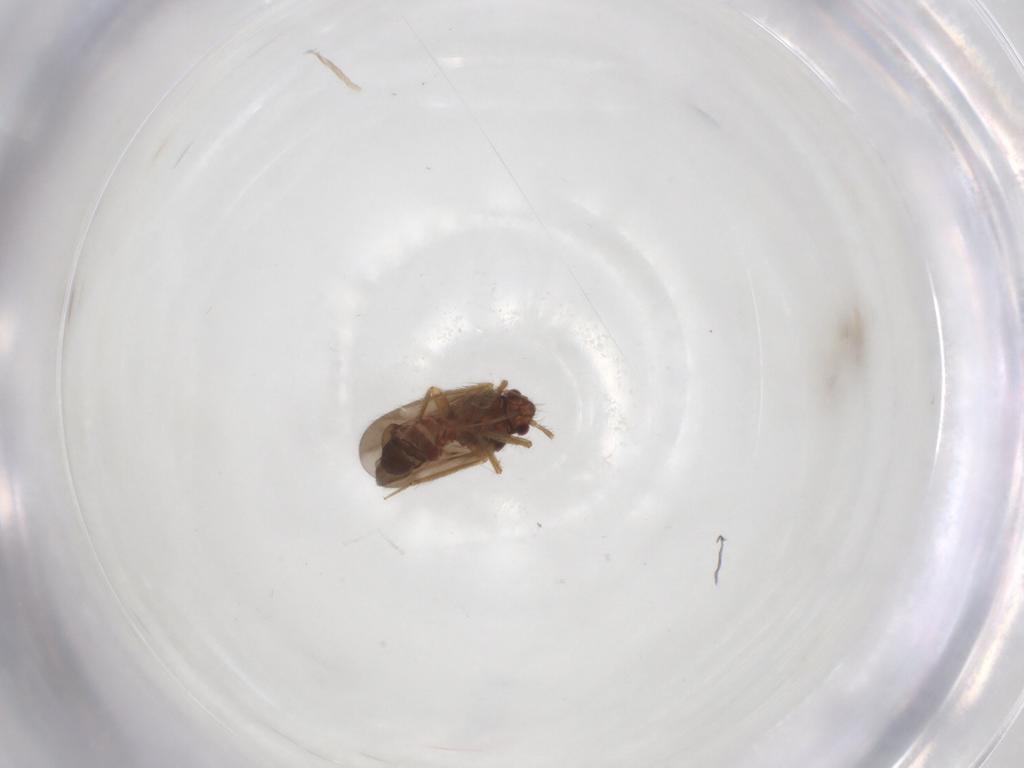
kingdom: Animalia
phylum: Arthropoda
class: Insecta
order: Hemiptera
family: Ceratocombidae
